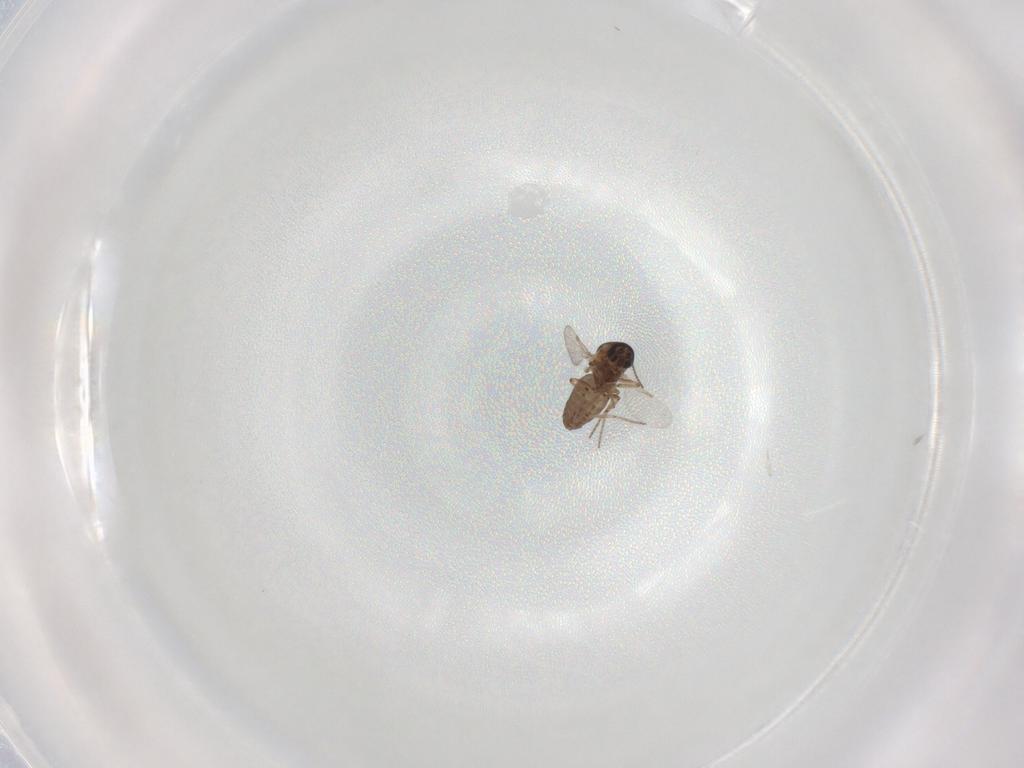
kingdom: Animalia
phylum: Arthropoda
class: Insecta
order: Diptera
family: Ceratopogonidae
